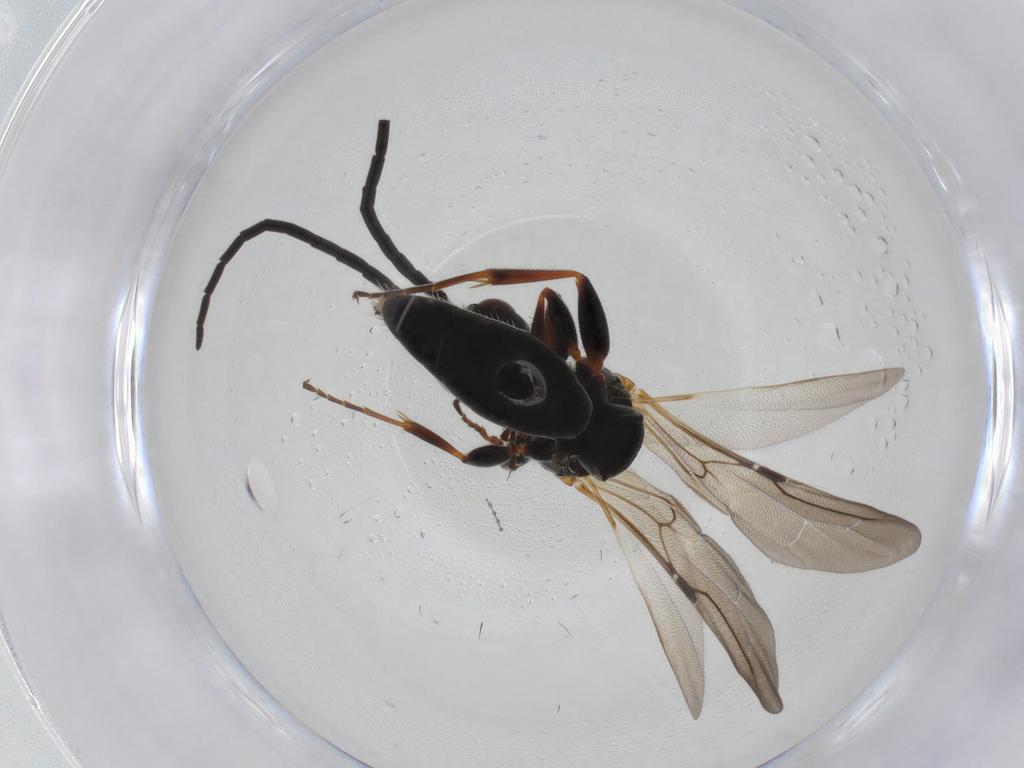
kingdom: Animalia
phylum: Arthropoda
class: Insecta
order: Hymenoptera
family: Bethylidae
